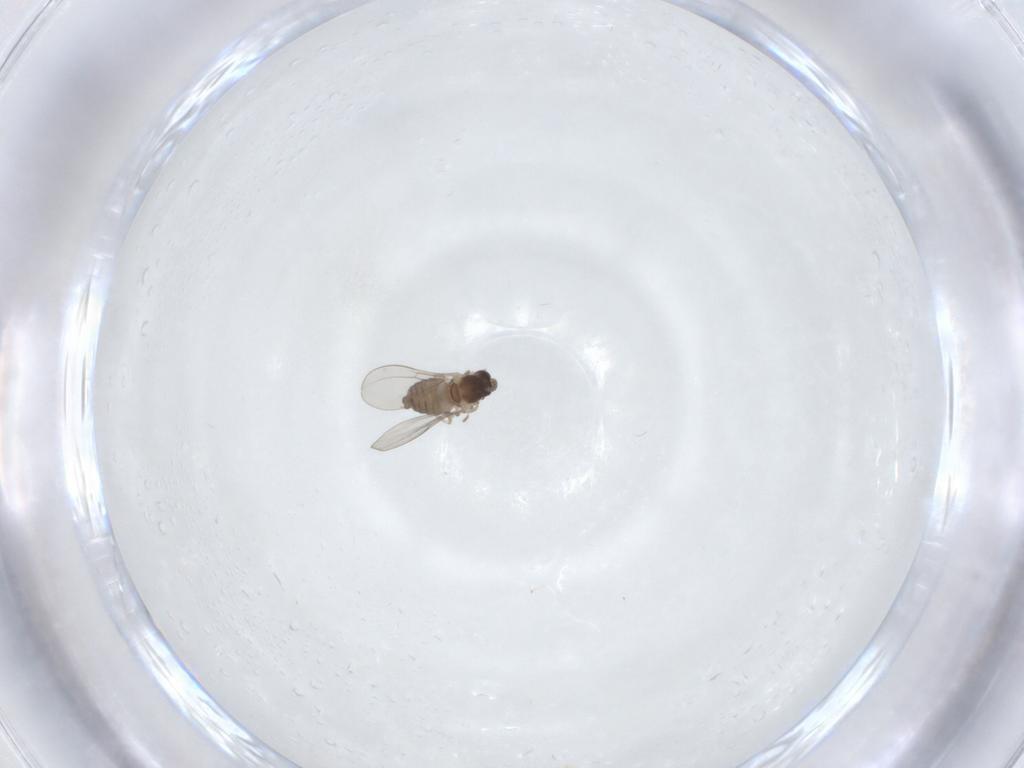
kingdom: Animalia
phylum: Arthropoda
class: Insecta
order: Diptera
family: Cecidomyiidae
